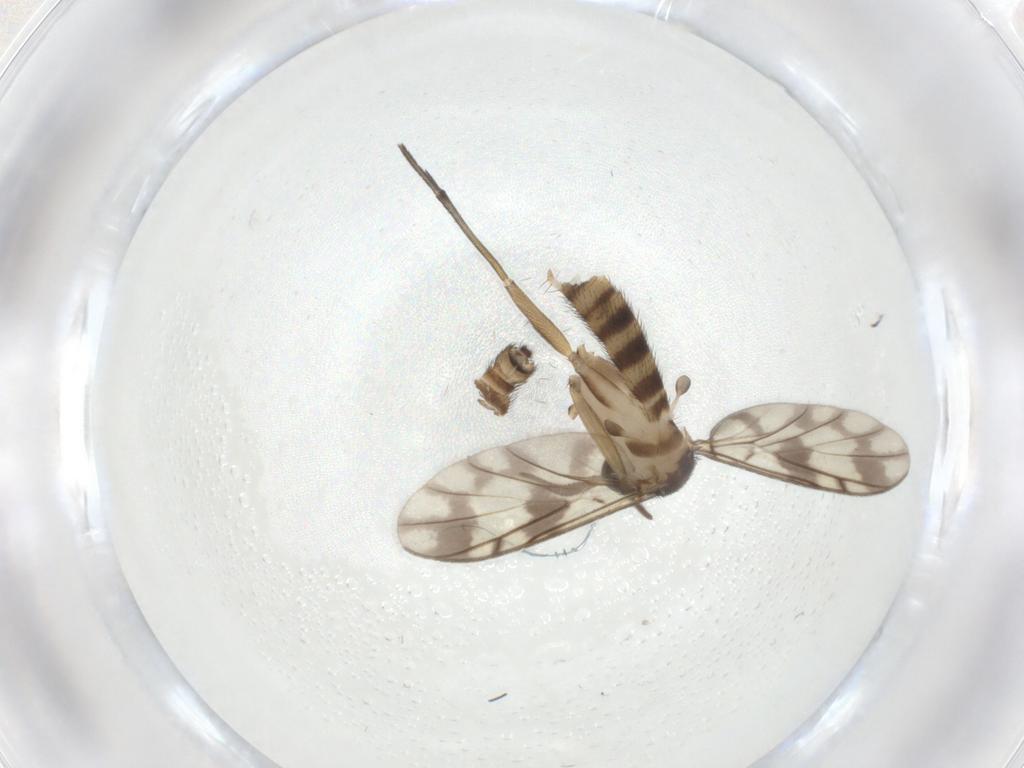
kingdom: Animalia
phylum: Arthropoda
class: Insecta
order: Diptera
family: Keroplatidae
